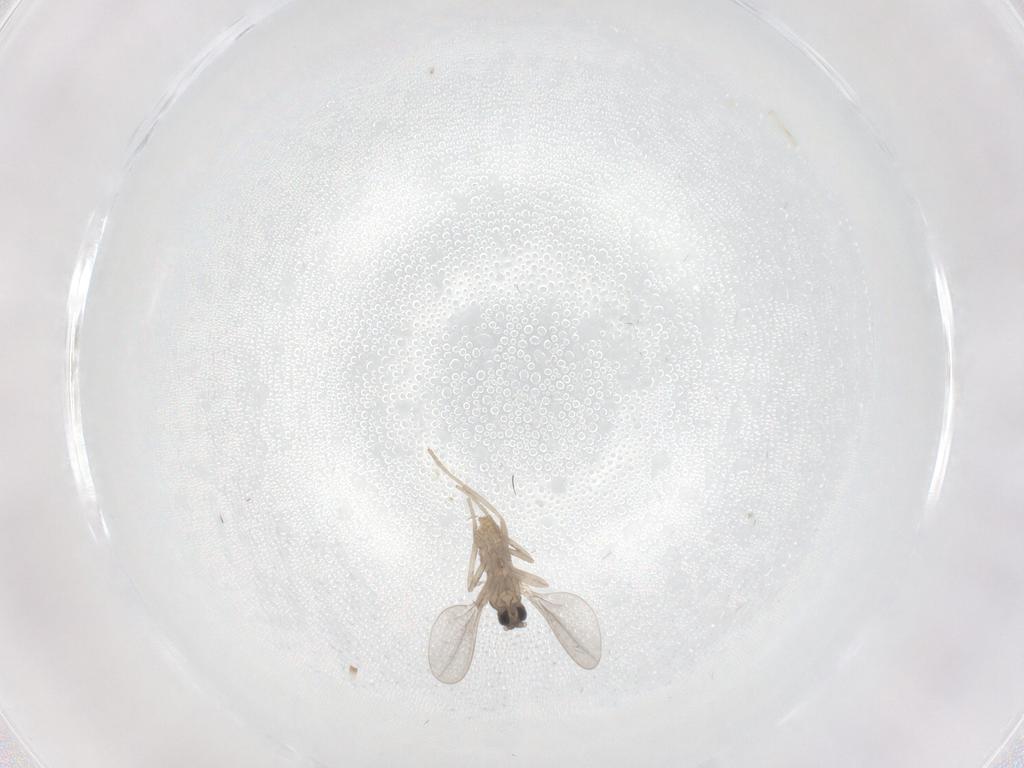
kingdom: Animalia
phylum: Arthropoda
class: Insecta
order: Diptera
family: Cecidomyiidae
